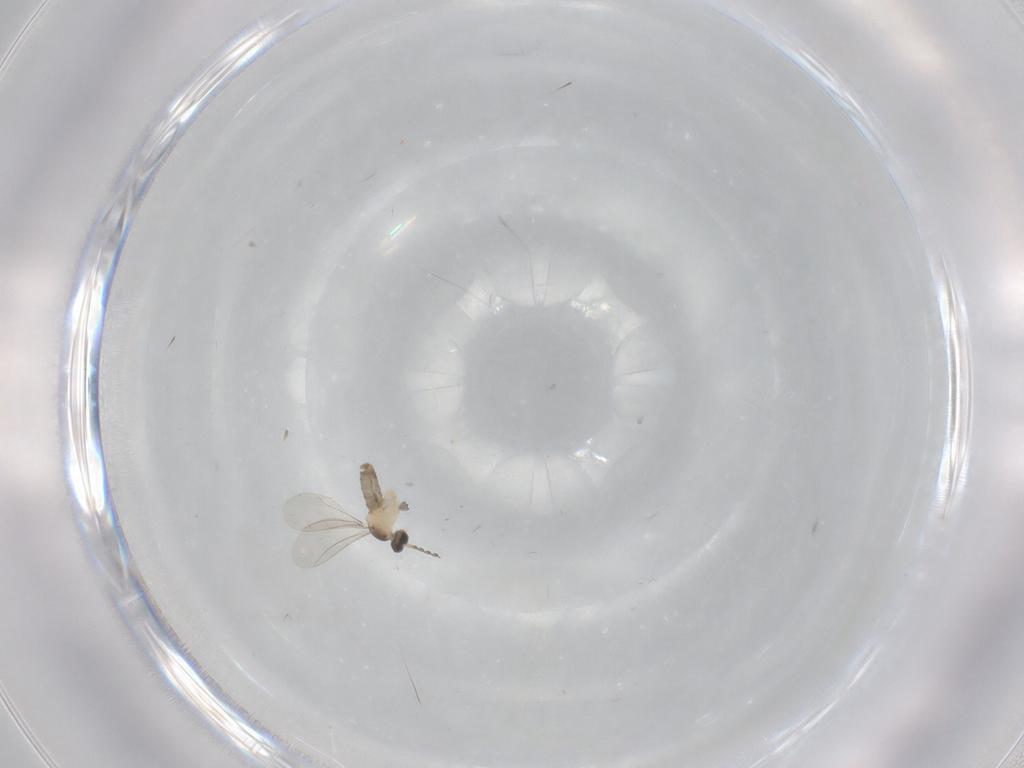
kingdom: Animalia
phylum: Arthropoda
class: Insecta
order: Diptera
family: Cecidomyiidae
